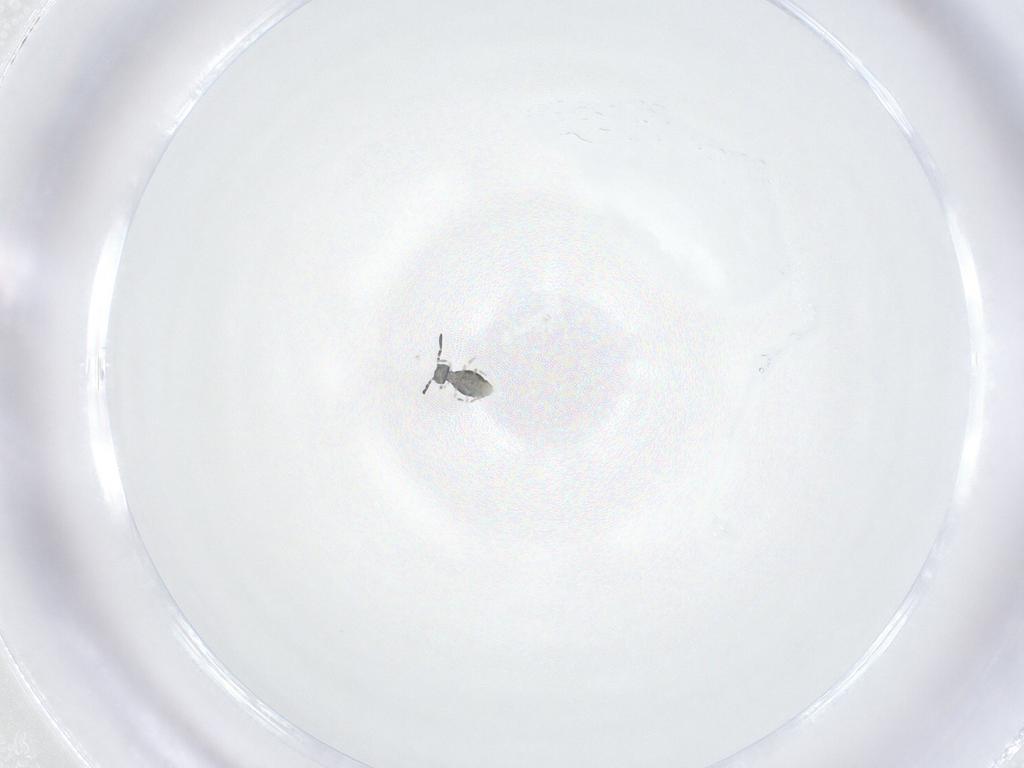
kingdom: Animalia
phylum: Arthropoda
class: Collembola
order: Symphypleona
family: Katiannidae
